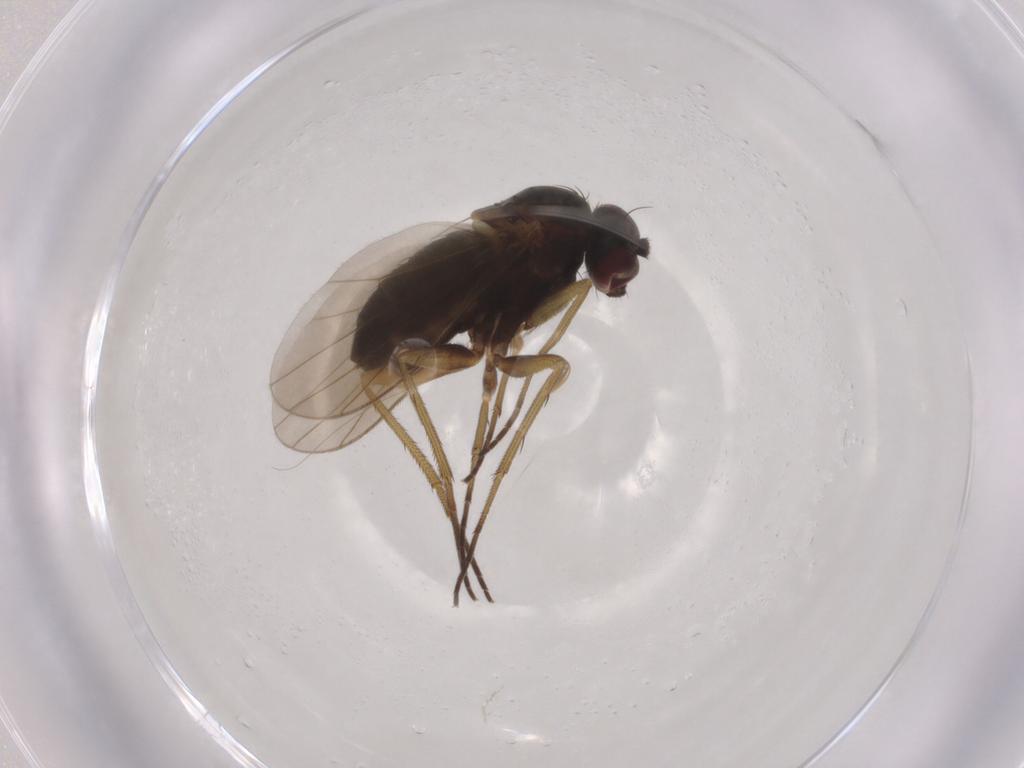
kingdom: Animalia
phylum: Arthropoda
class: Insecta
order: Diptera
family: Dolichopodidae
